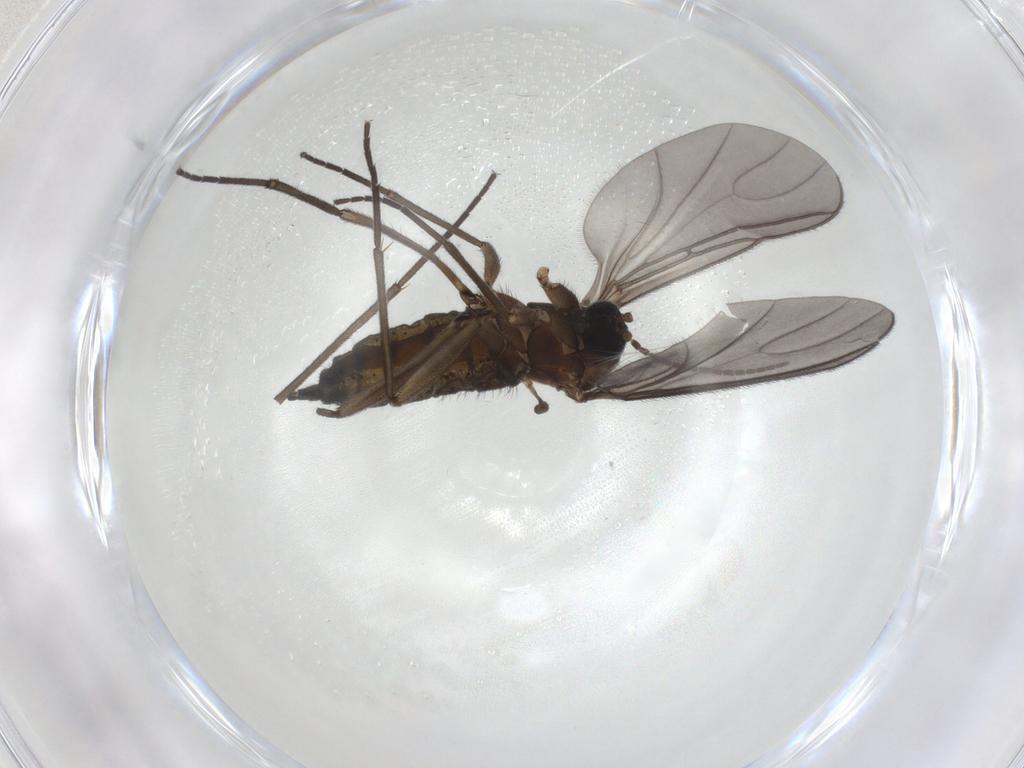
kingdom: Animalia
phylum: Arthropoda
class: Insecta
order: Diptera
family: Sciaridae
